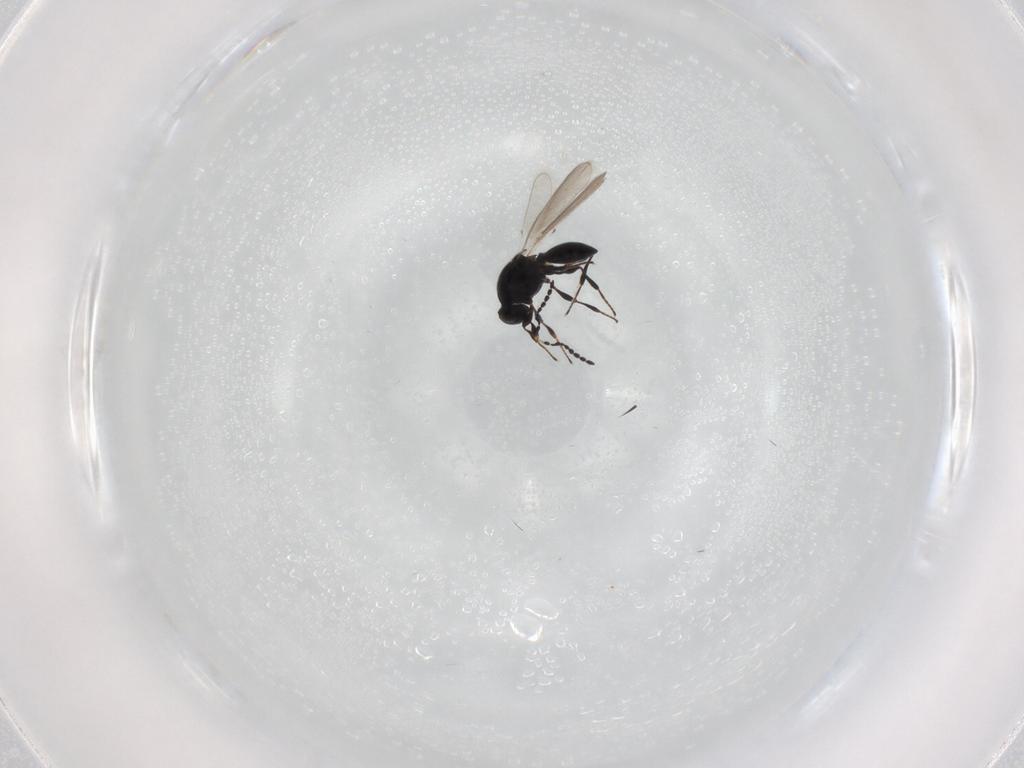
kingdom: Animalia
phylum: Arthropoda
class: Insecta
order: Hymenoptera
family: Platygastridae
